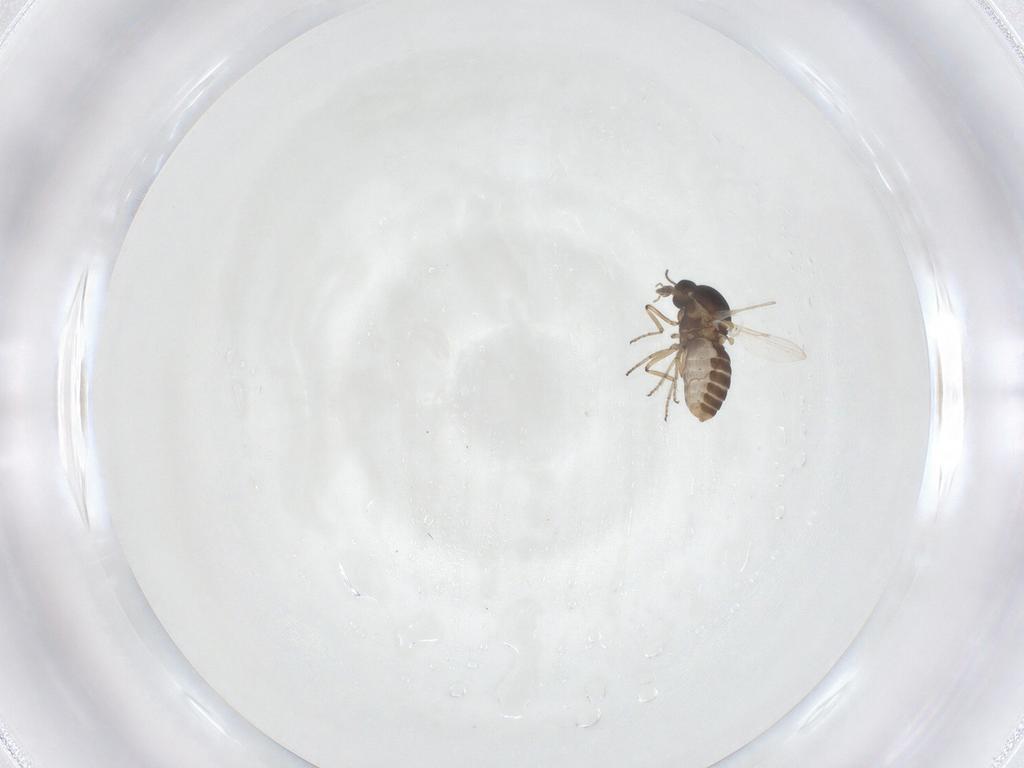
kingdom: Animalia
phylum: Arthropoda
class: Insecta
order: Diptera
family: Ceratopogonidae
